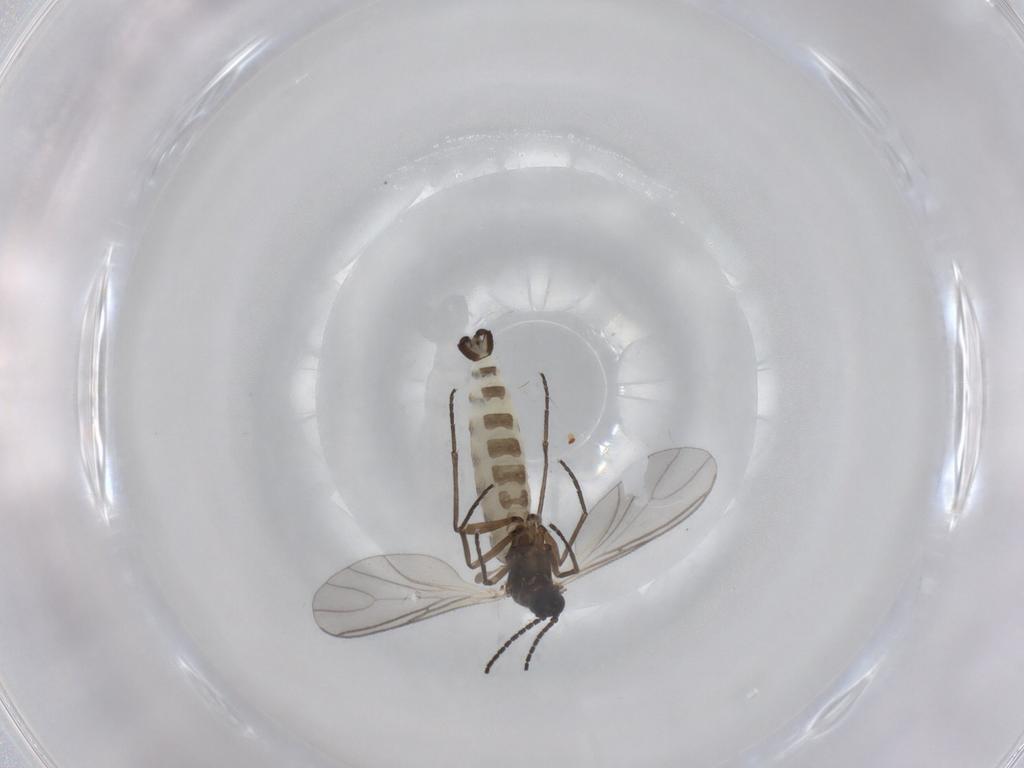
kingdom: Animalia
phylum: Arthropoda
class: Insecta
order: Diptera
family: Sciaridae
